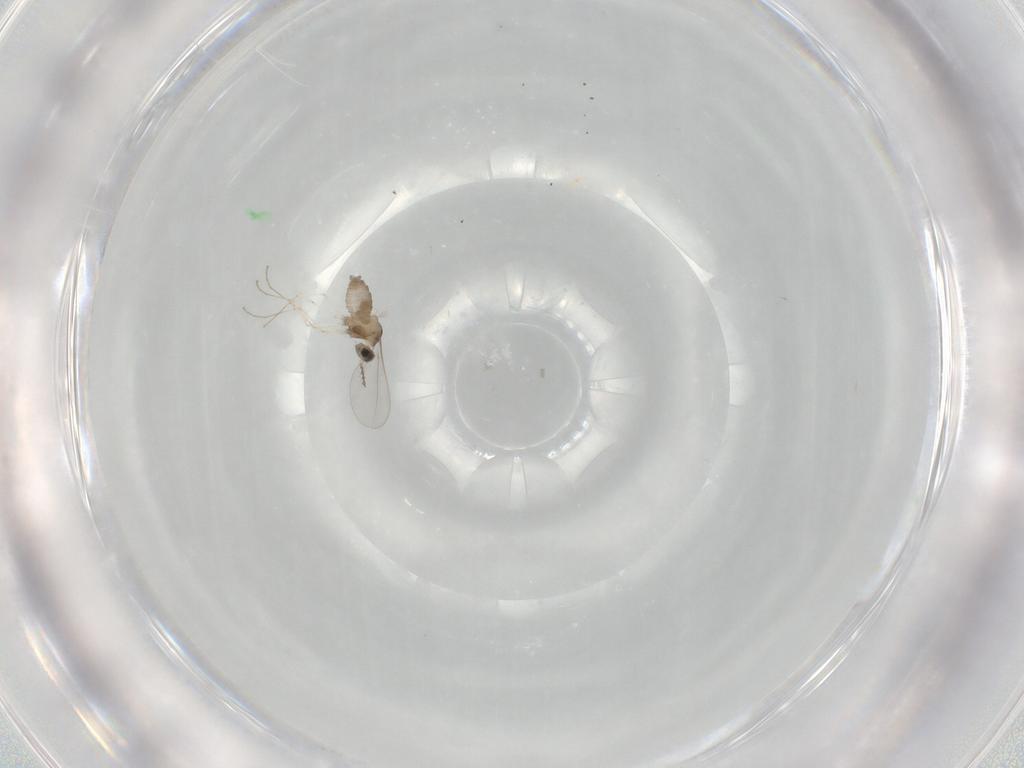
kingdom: Animalia
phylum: Arthropoda
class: Insecta
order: Diptera
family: Cecidomyiidae
